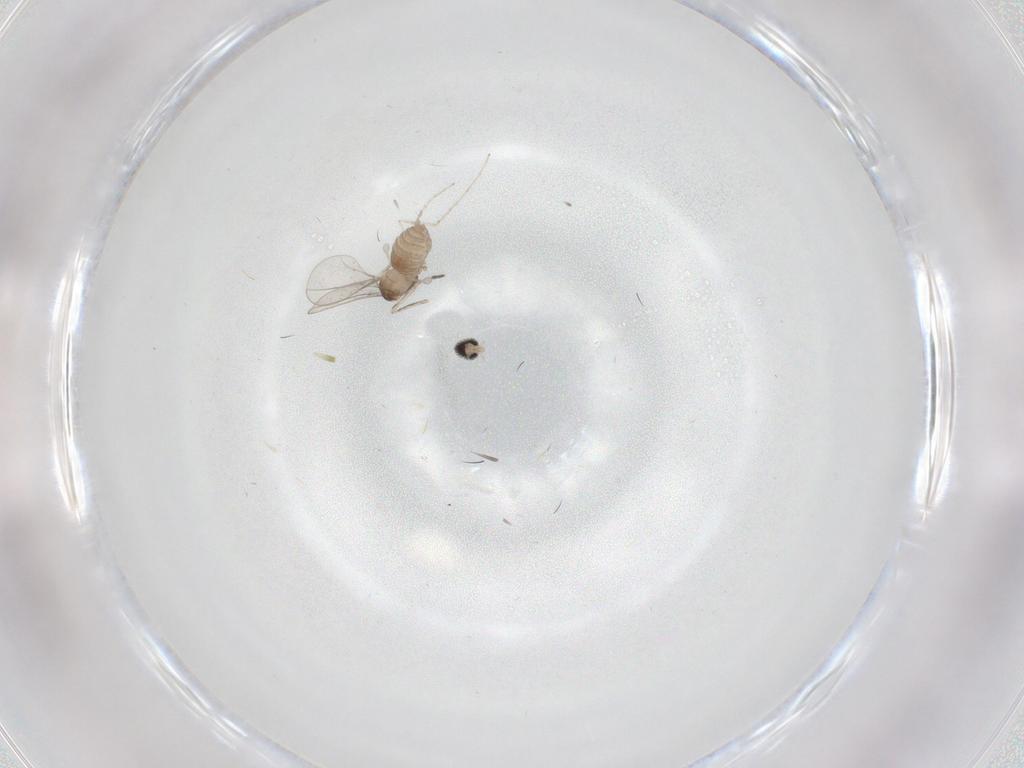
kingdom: Animalia
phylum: Arthropoda
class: Insecta
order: Diptera
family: Cecidomyiidae
